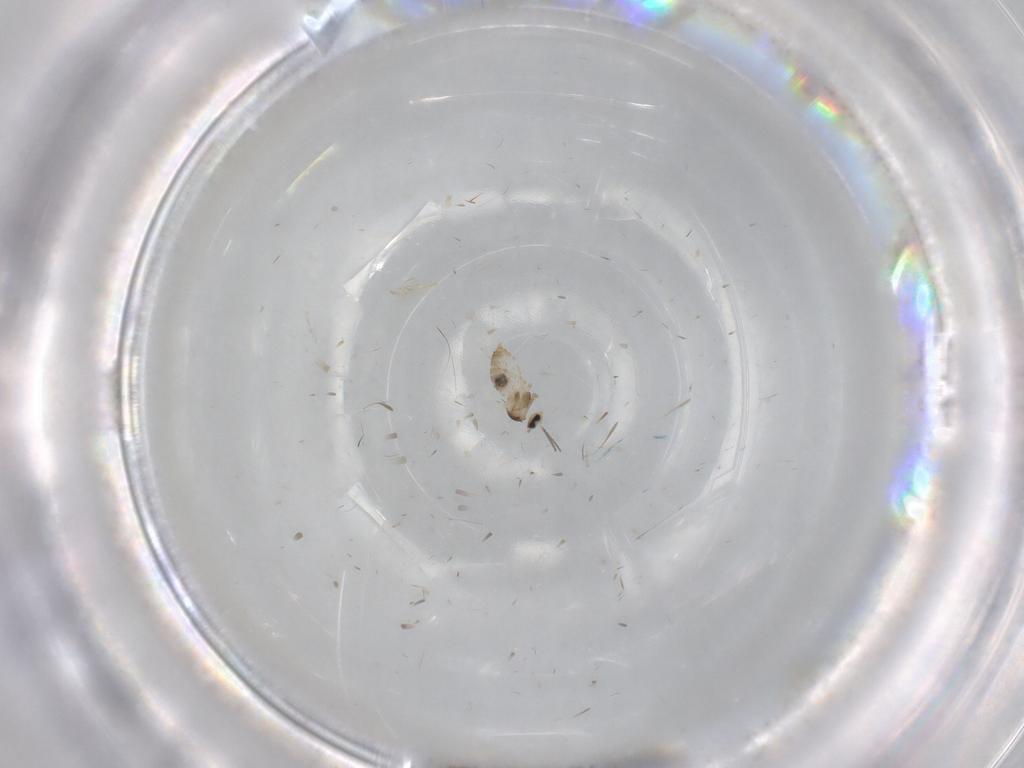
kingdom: Animalia
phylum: Arthropoda
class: Insecta
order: Diptera
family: Cecidomyiidae
